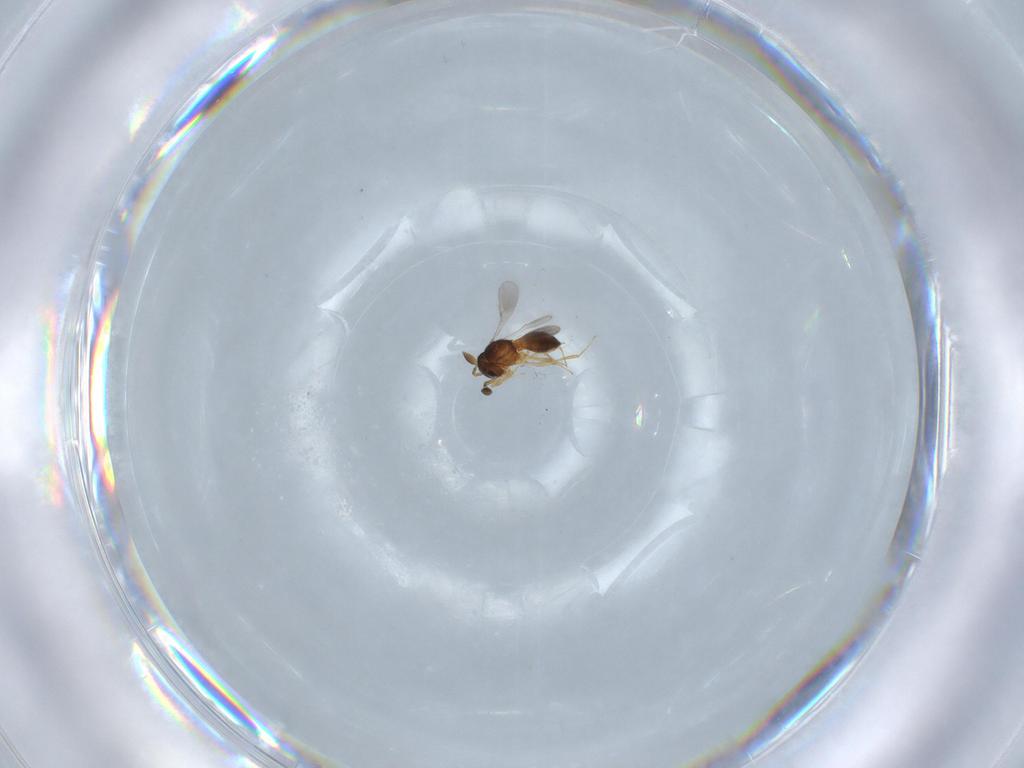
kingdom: Animalia
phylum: Arthropoda
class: Insecta
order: Hymenoptera
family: Scelionidae
